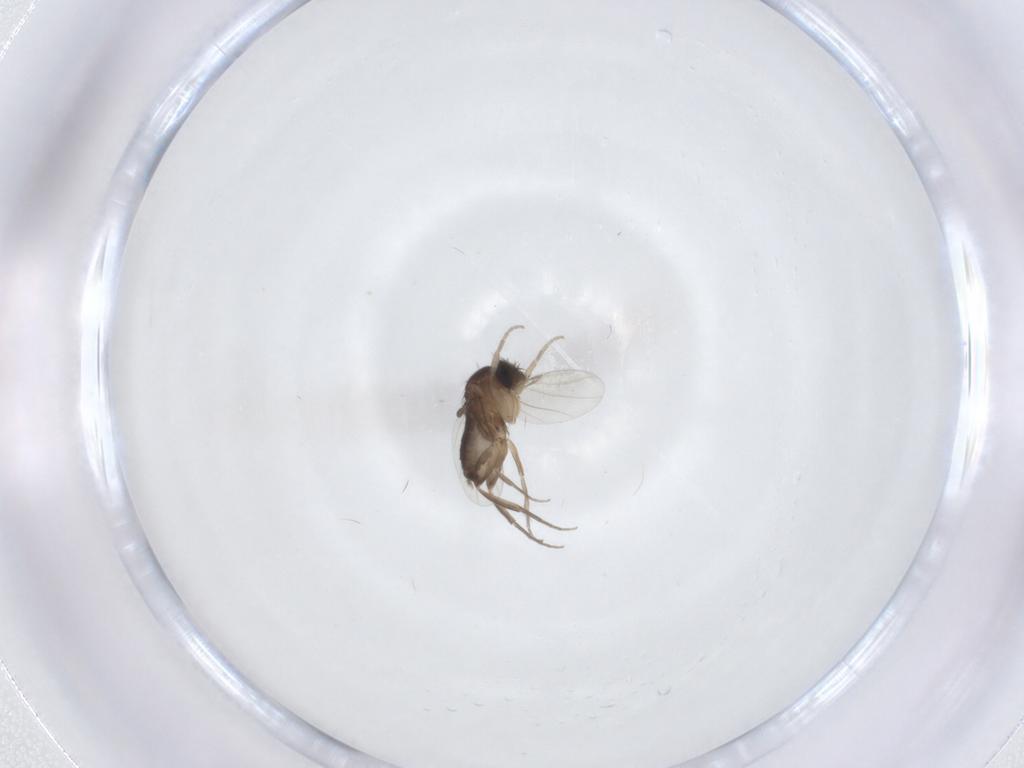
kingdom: Animalia
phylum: Arthropoda
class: Insecta
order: Diptera
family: Phoridae
